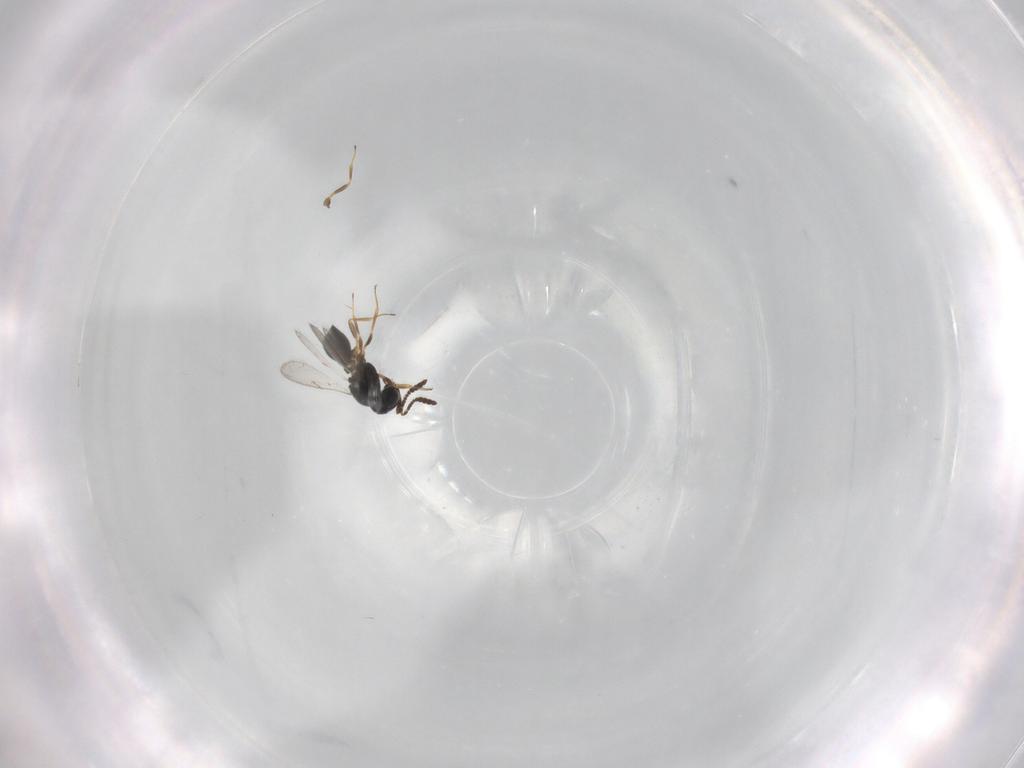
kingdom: Animalia
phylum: Arthropoda
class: Insecta
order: Hymenoptera
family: Scelionidae
